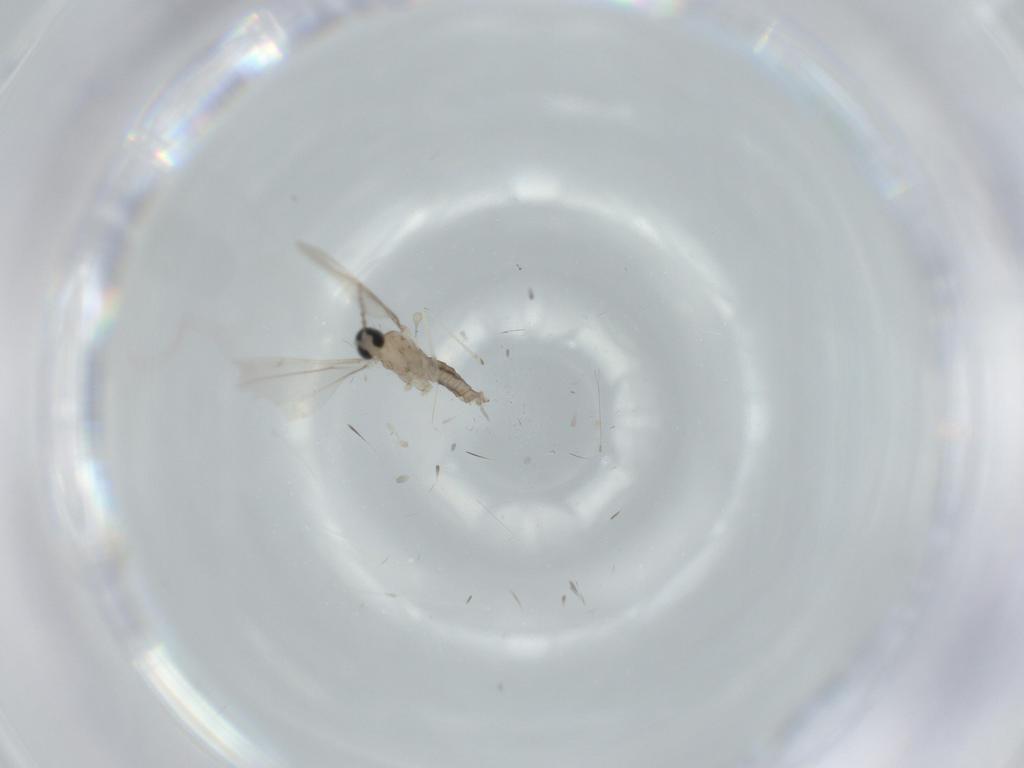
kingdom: Animalia
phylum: Arthropoda
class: Insecta
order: Diptera
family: Cecidomyiidae
